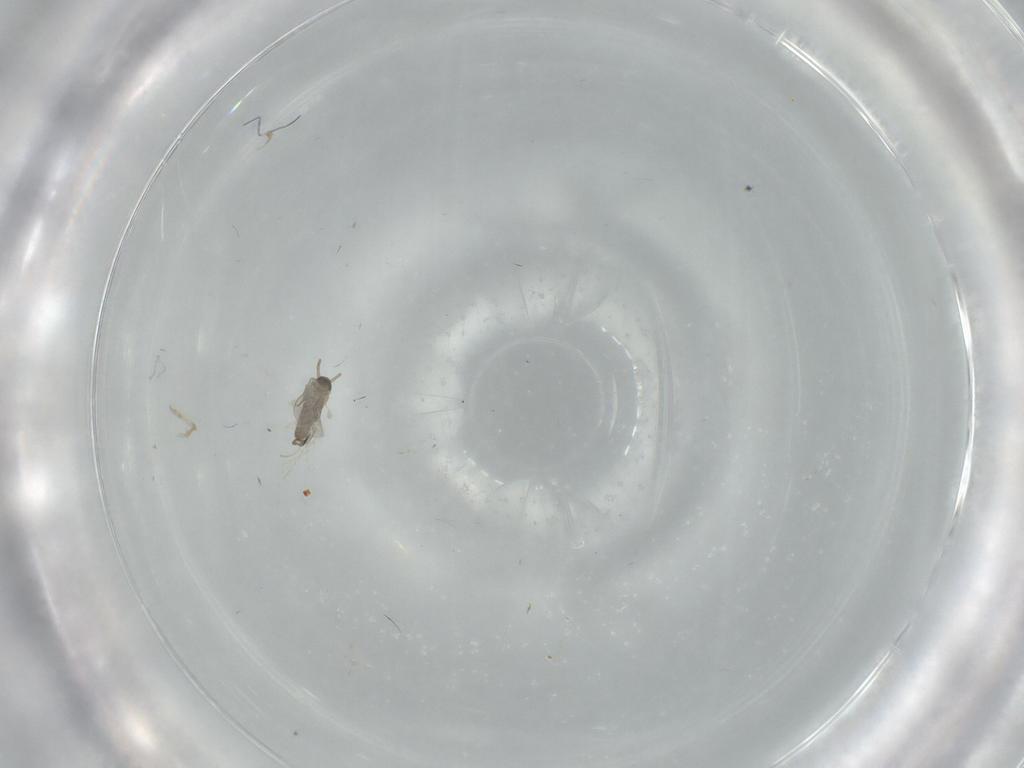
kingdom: Animalia
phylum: Arthropoda
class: Insecta
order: Diptera
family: Cecidomyiidae
